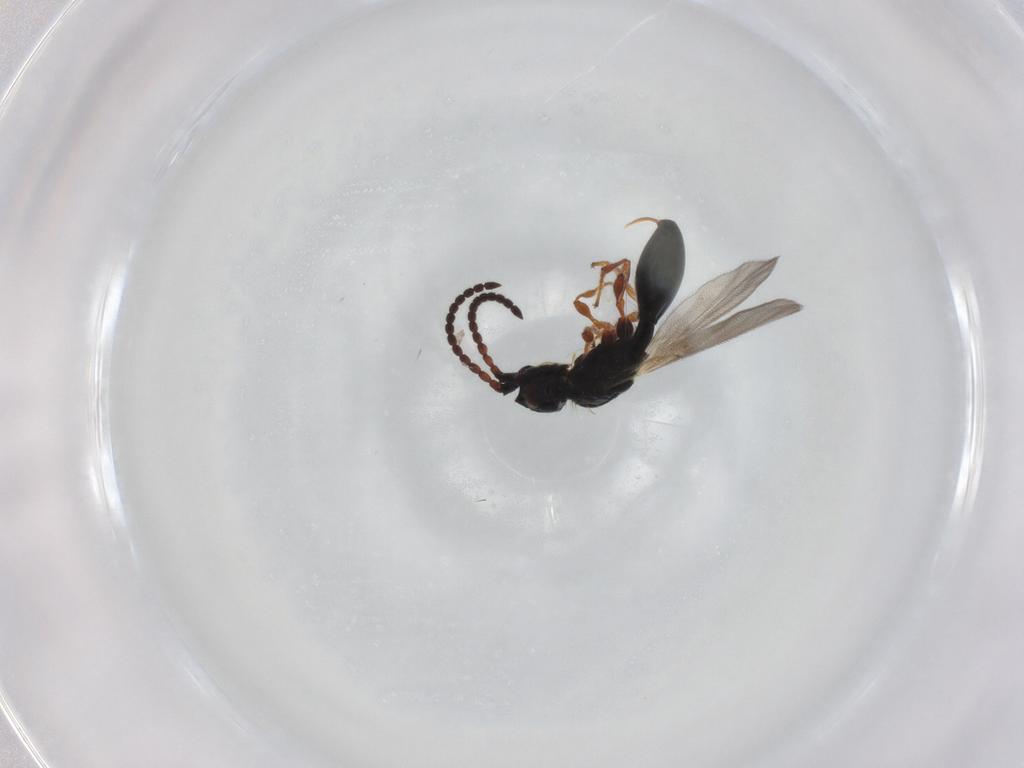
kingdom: Animalia
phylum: Arthropoda
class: Insecta
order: Hymenoptera
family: Diapriidae
